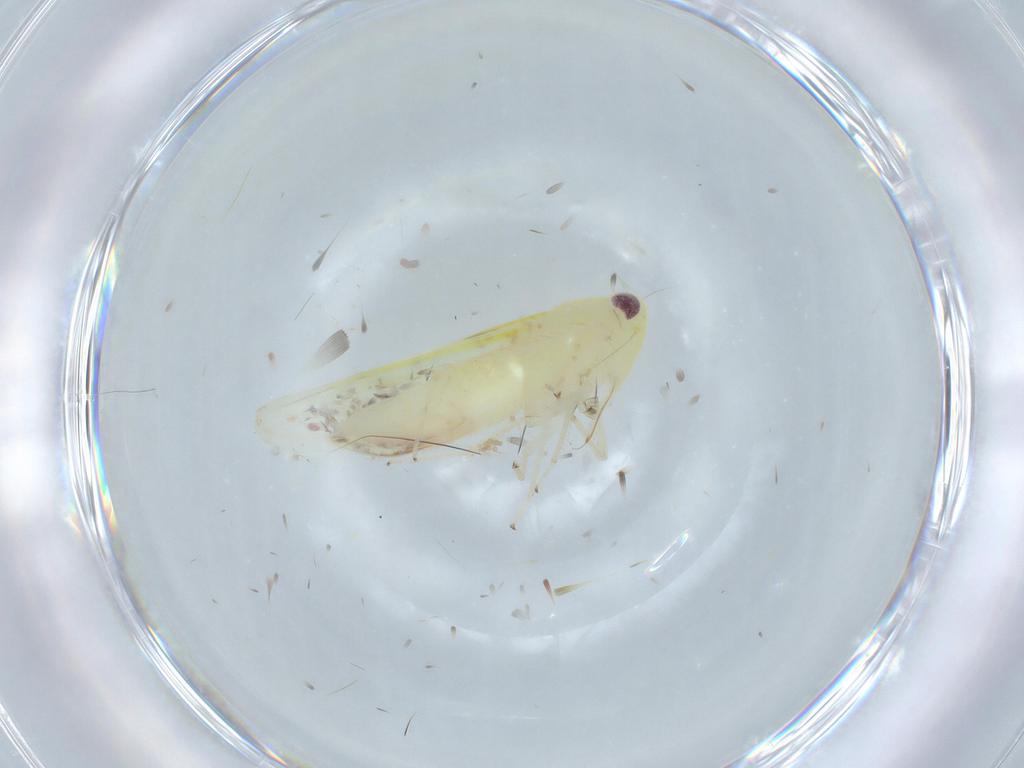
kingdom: Animalia
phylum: Arthropoda
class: Insecta
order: Hemiptera
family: Cicadellidae
